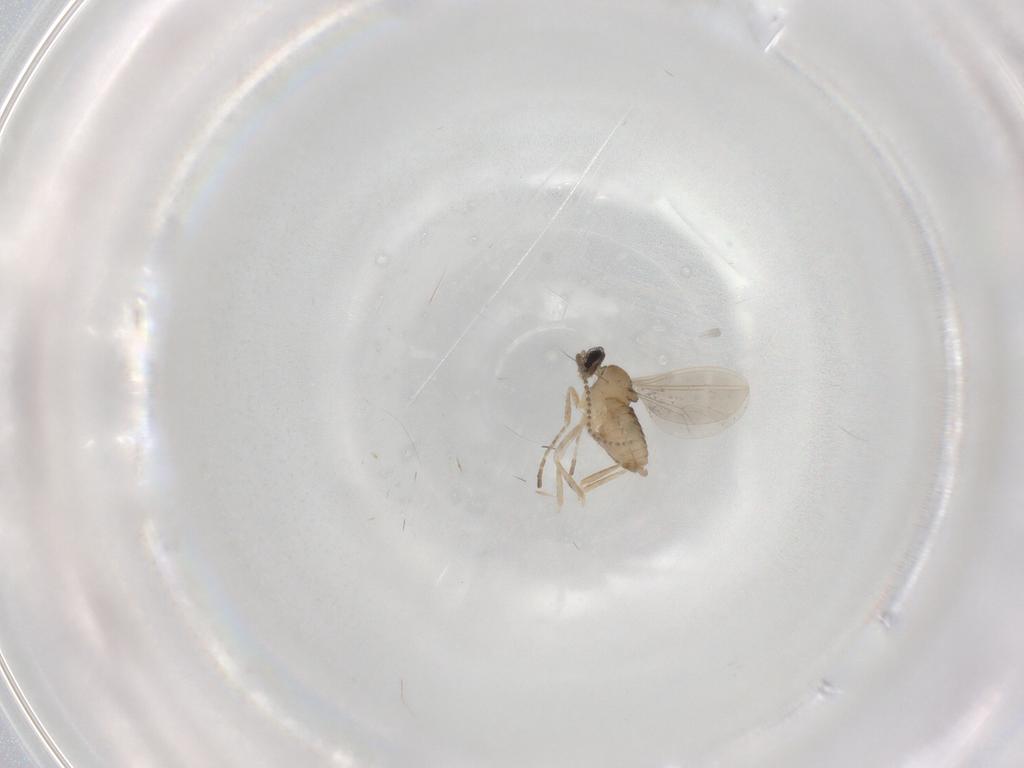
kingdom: Animalia
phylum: Arthropoda
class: Insecta
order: Diptera
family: Cecidomyiidae
